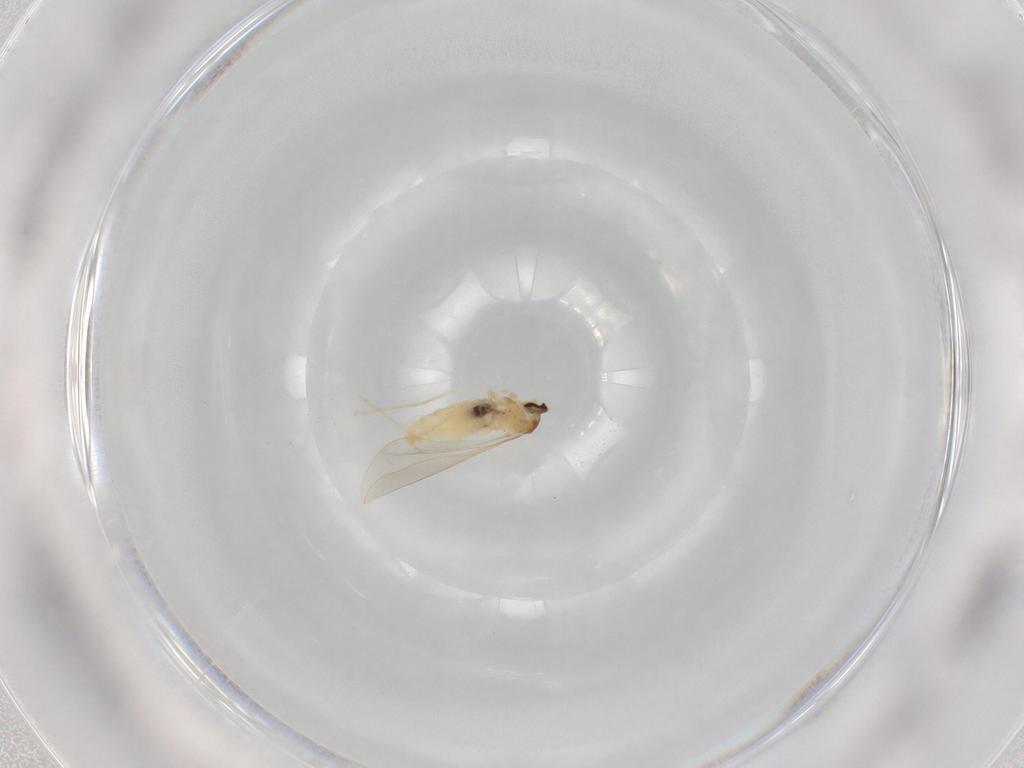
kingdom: Animalia
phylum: Arthropoda
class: Insecta
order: Diptera
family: Cecidomyiidae
